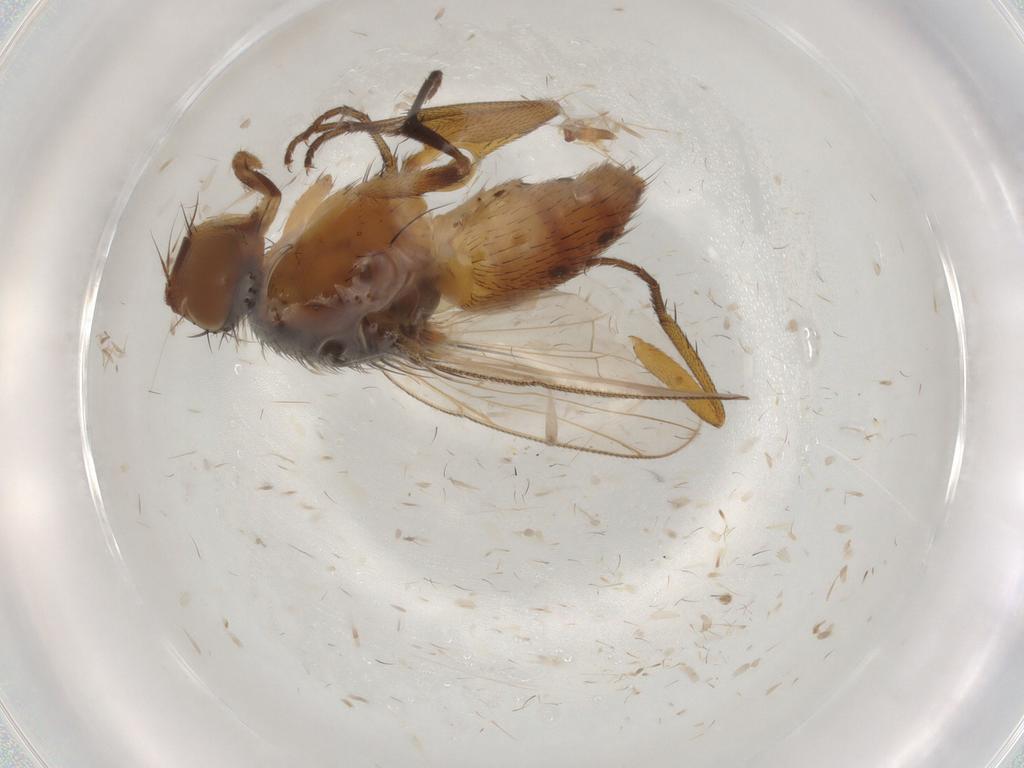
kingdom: Animalia
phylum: Arthropoda
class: Insecta
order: Diptera
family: Muscidae
